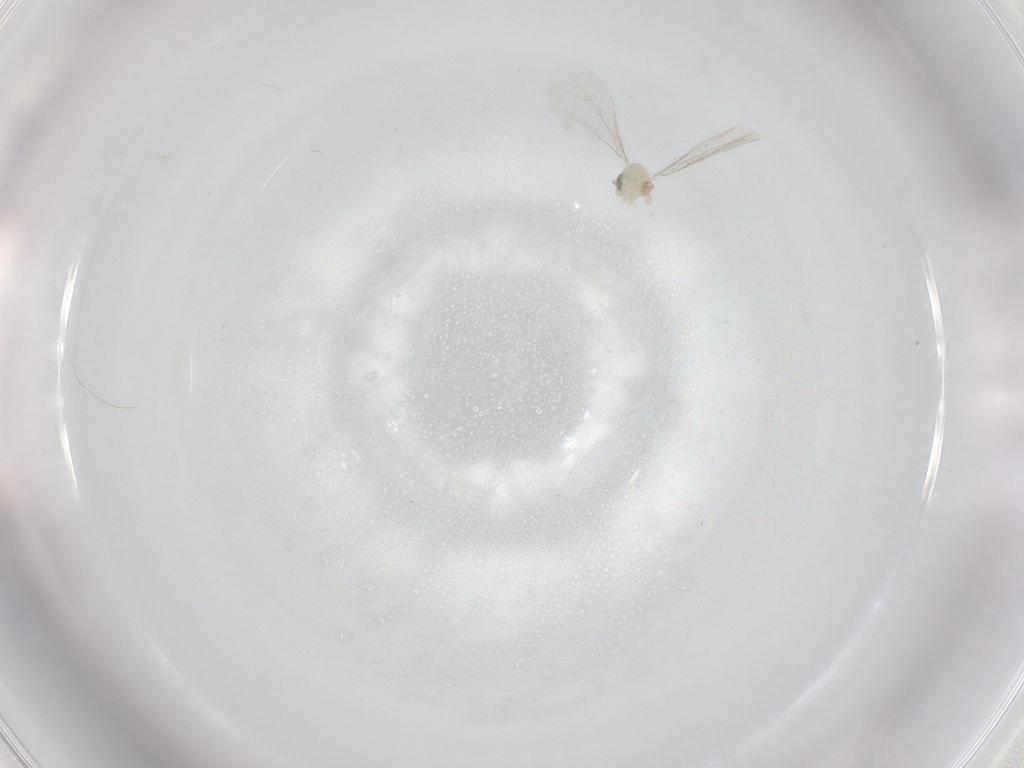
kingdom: Animalia
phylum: Arthropoda
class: Insecta
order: Diptera
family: Cecidomyiidae
